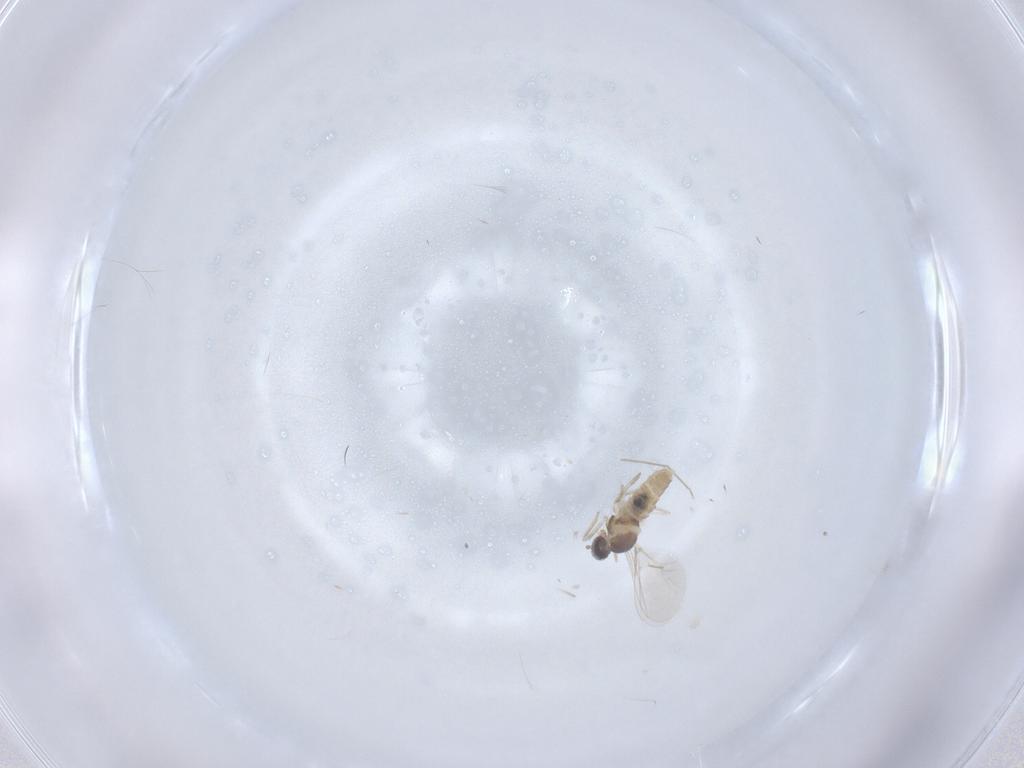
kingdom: Animalia
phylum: Arthropoda
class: Insecta
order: Diptera
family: Cecidomyiidae
